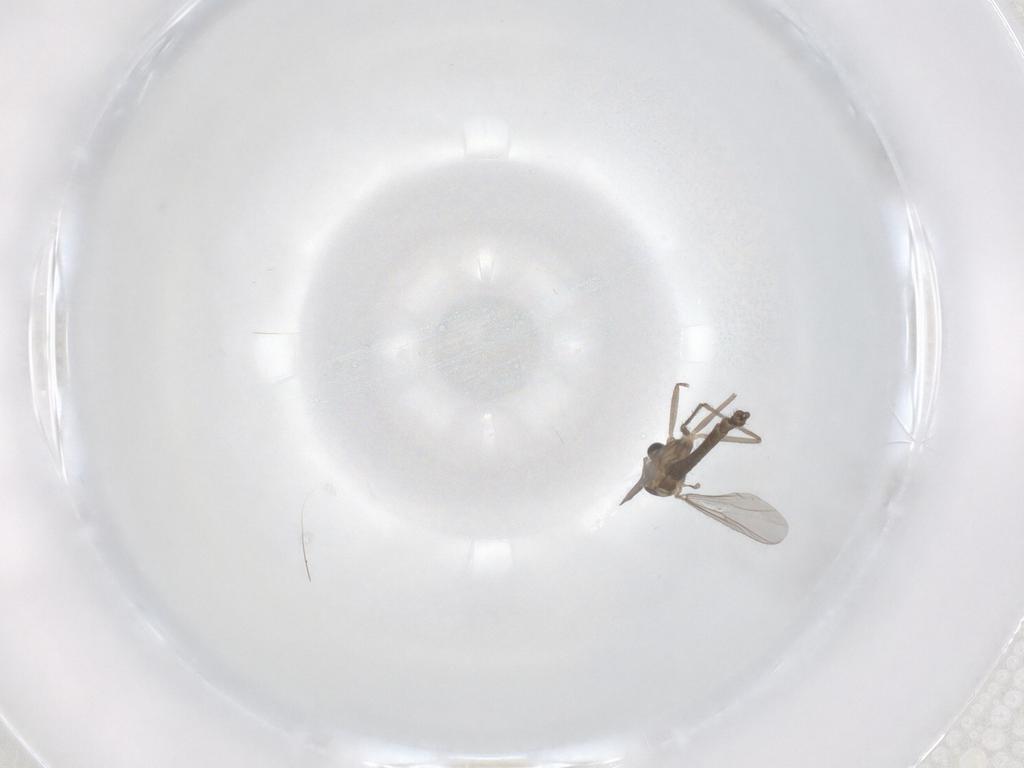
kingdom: Animalia
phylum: Arthropoda
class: Insecta
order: Diptera
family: Chironomidae
